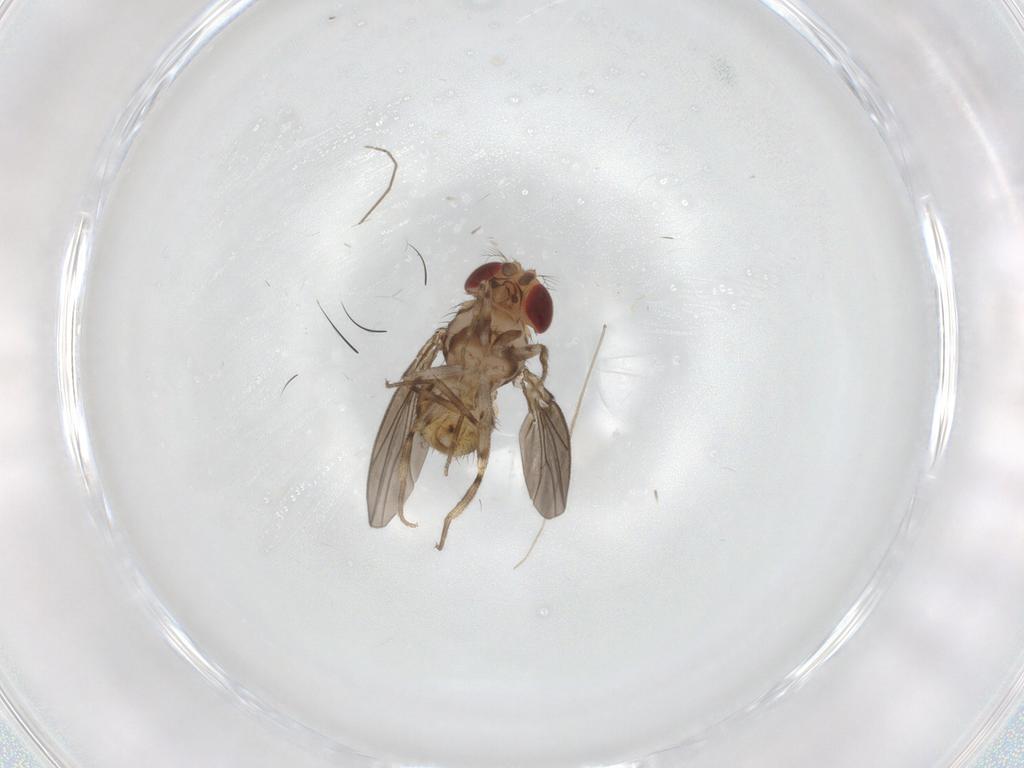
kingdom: Animalia
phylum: Arthropoda
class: Insecta
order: Diptera
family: Drosophilidae
